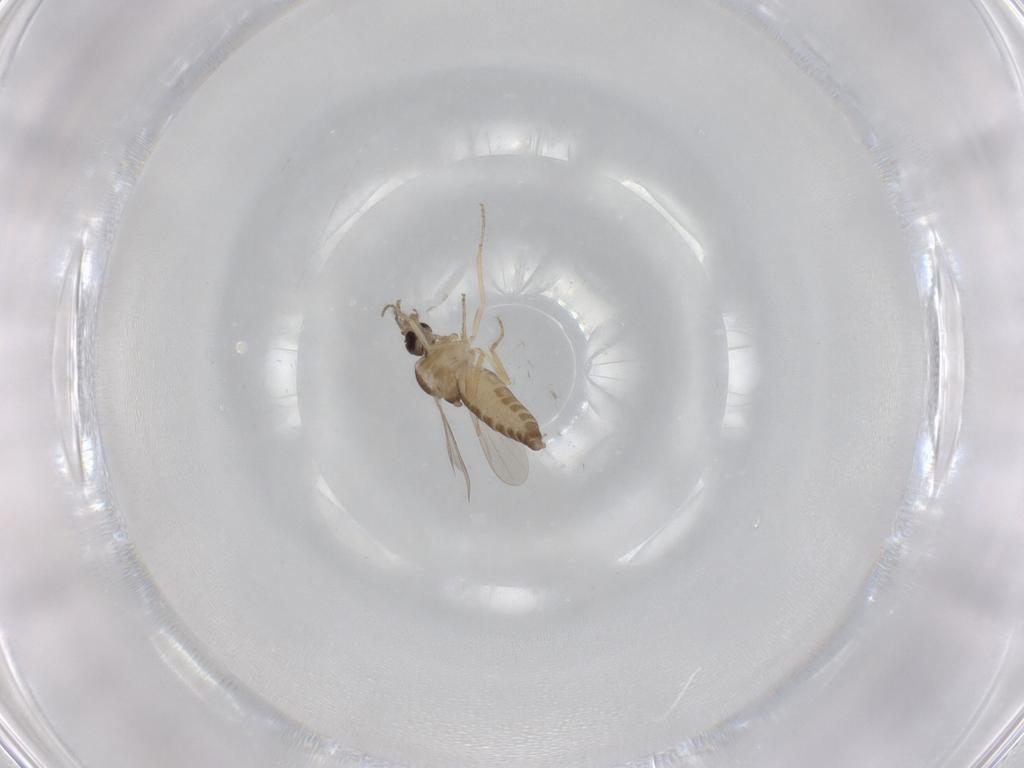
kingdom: Animalia
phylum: Arthropoda
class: Insecta
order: Diptera
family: Ceratopogonidae
